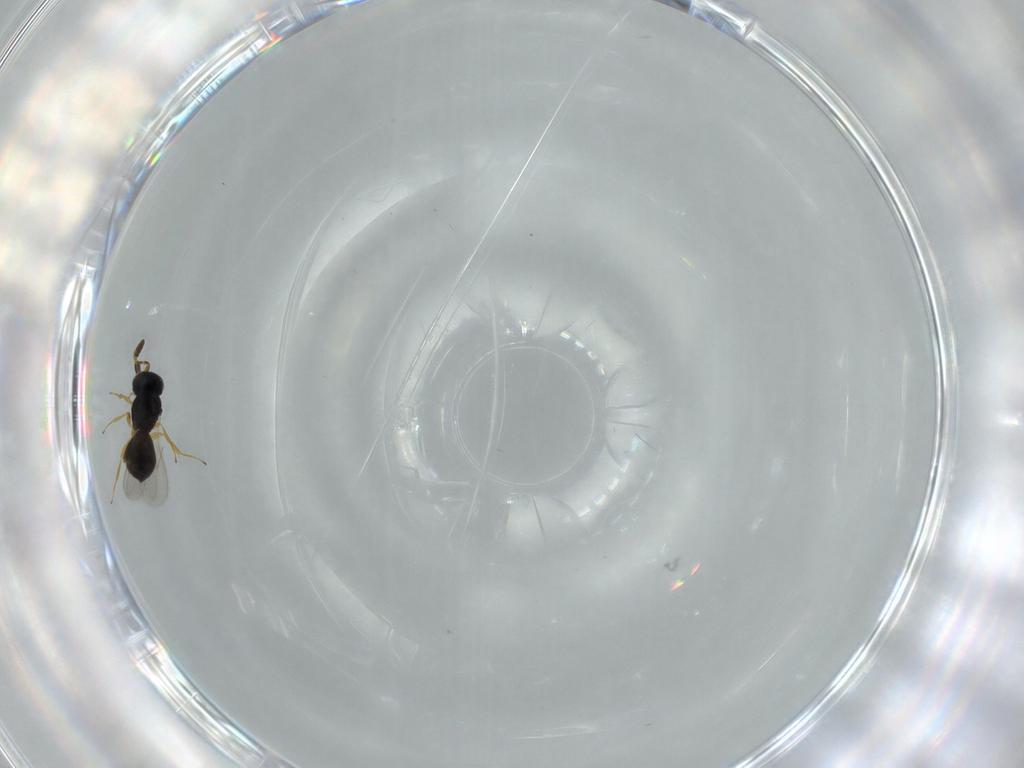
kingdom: Animalia
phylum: Arthropoda
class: Insecta
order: Hymenoptera
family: Scelionidae
